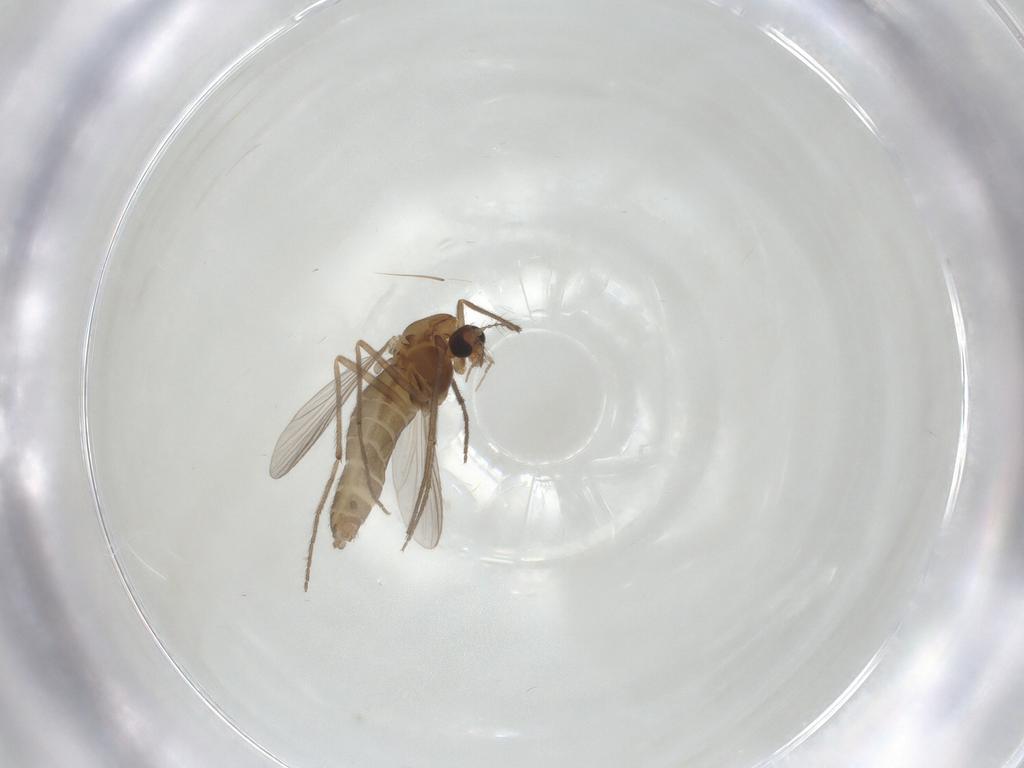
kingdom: Animalia
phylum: Arthropoda
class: Insecta
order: Diptera
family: Chironomidae
